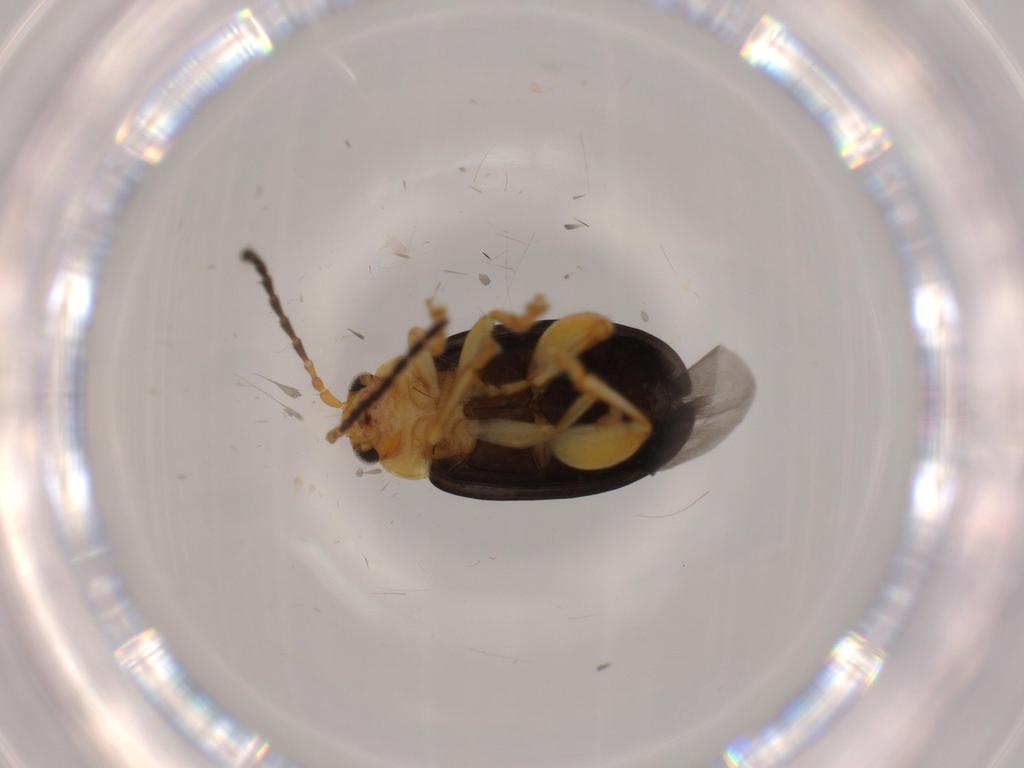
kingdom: Animalia
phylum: Arthropoda
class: Insecta
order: Coleoptera
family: Chrysomelidae
